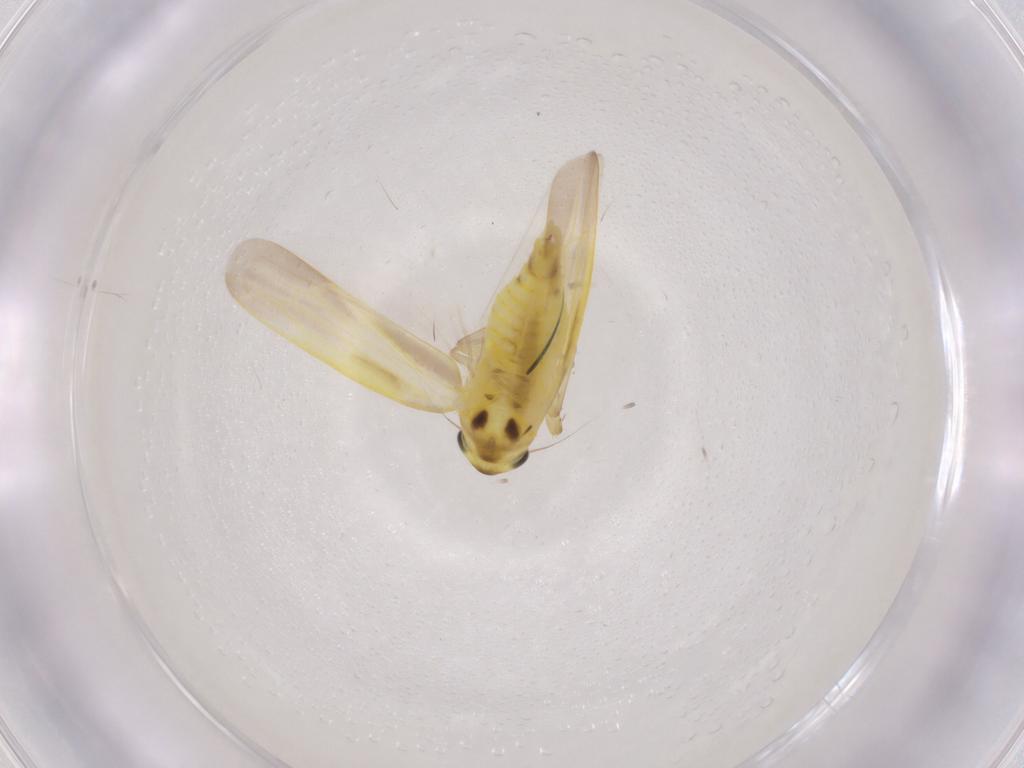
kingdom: Animalia
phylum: Arthropoda
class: Insecta
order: Hemiptera
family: Cicadellidae
